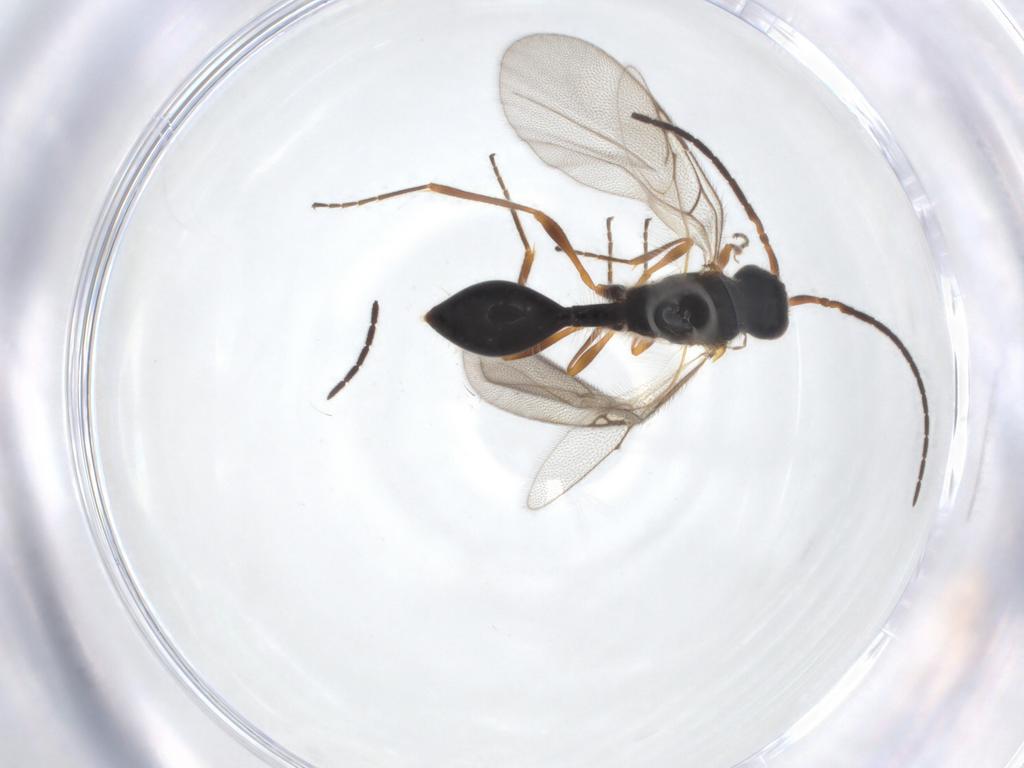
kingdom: Animalia
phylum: Arthropoda
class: Insecta
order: Hymenoptera
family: Diapriidae
